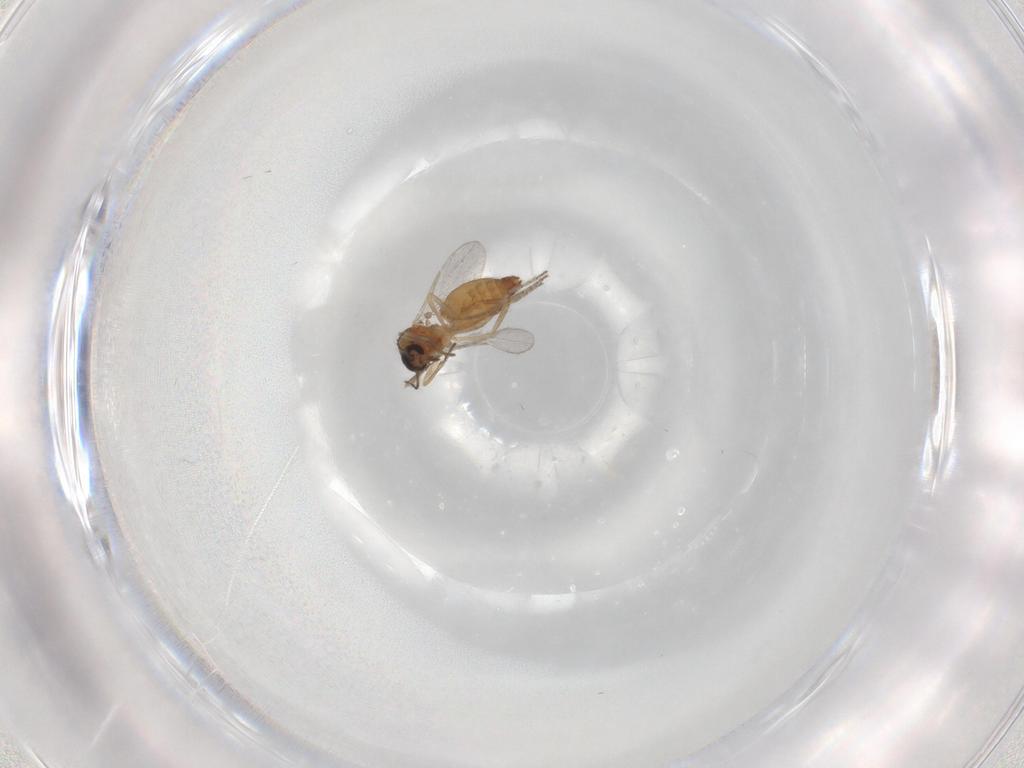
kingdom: Animalia
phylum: Arthropoda
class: Insecta
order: Diptera
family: Ceratopogonidae
